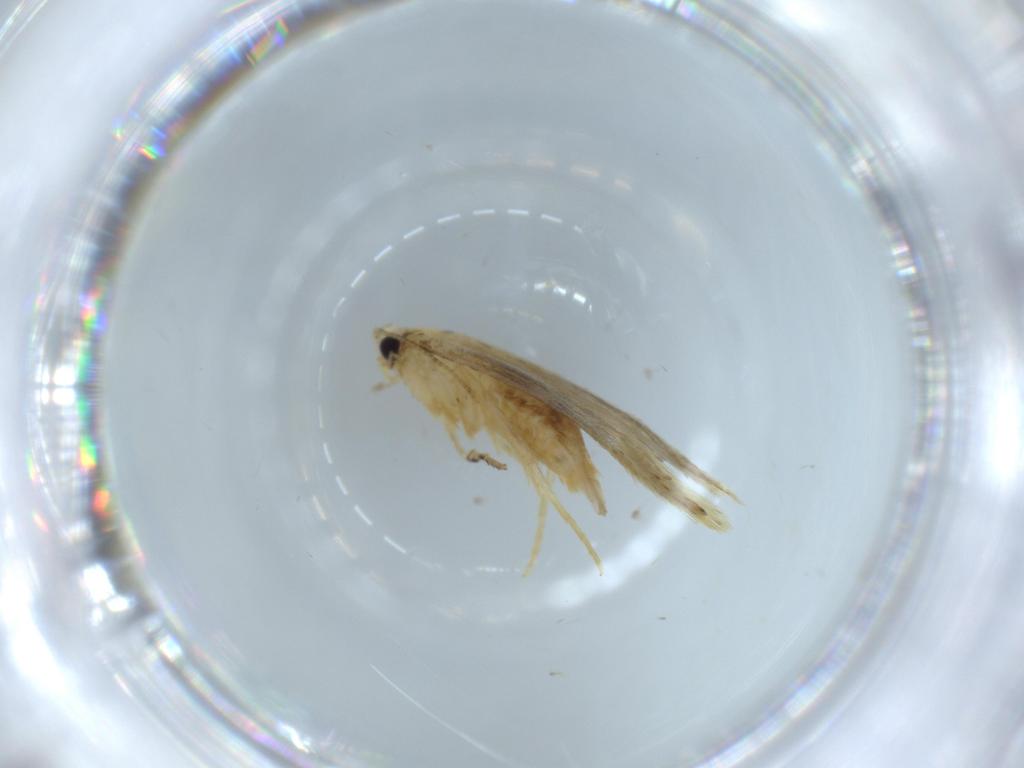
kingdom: Animalia
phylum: Arthropoda
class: Insecta
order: Lepidoptera
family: Tineidae
